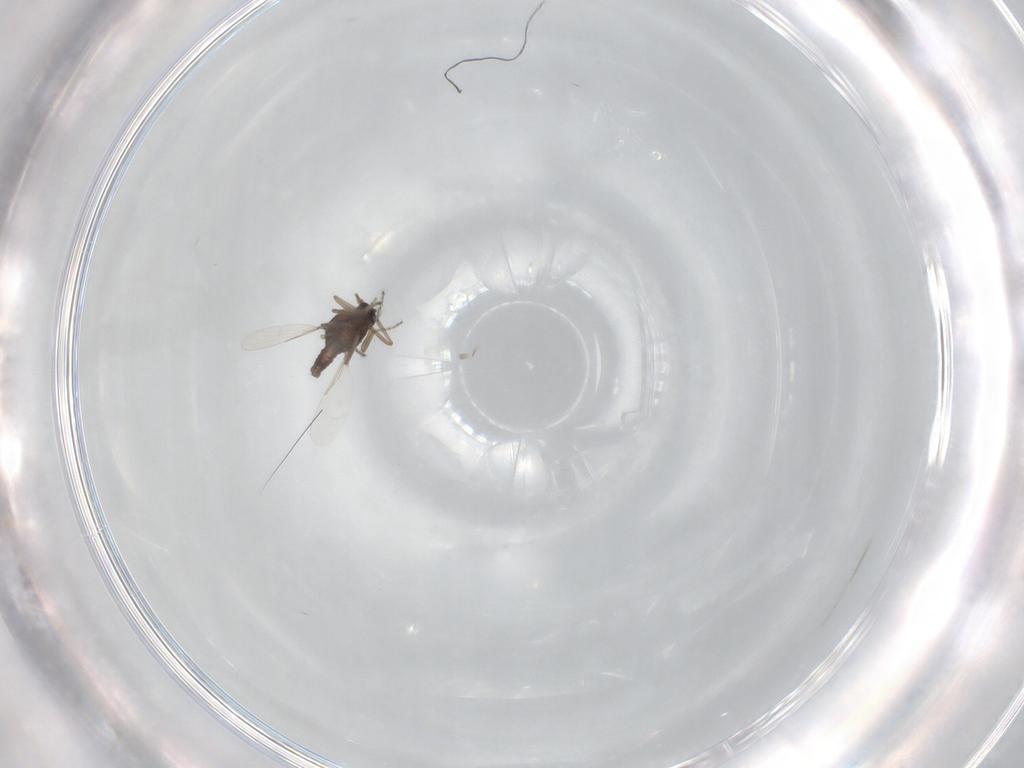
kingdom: Animalia
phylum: Arthropoda
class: Insecta
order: Diptera
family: Ceratopogonidae
